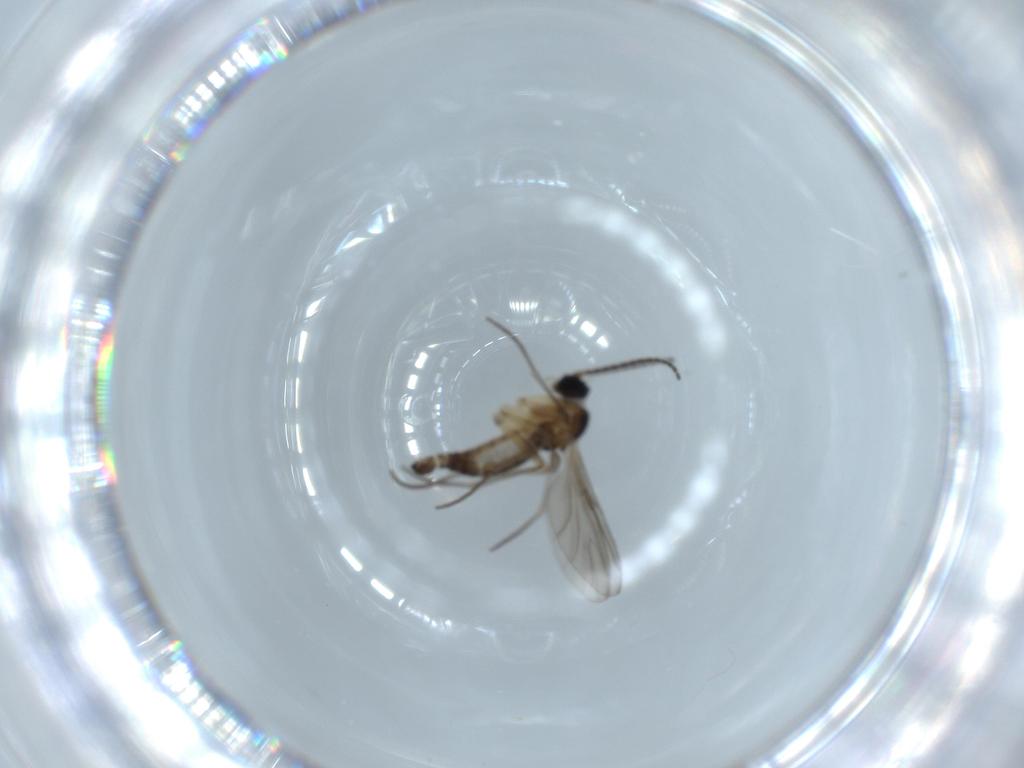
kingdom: Animalia
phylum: Arthropoda
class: Insecta
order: Diptera
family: Sciaridae
